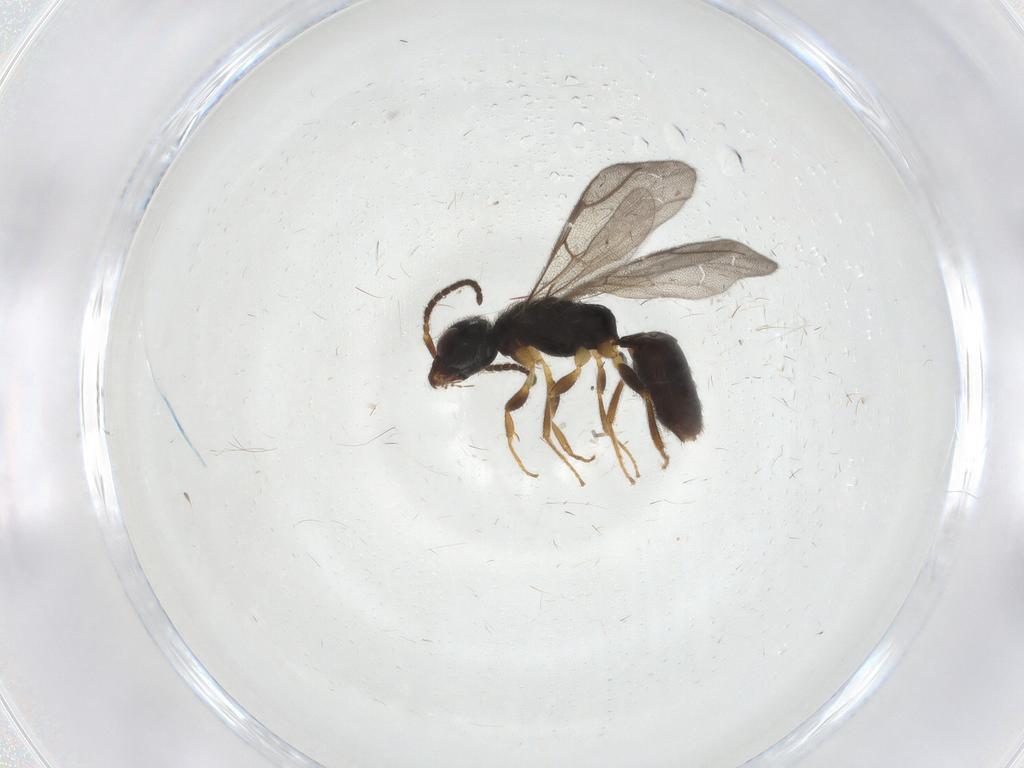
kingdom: Animalia
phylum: Arthropoda
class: Insecta
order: Hymenoptera
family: Bethylidae
